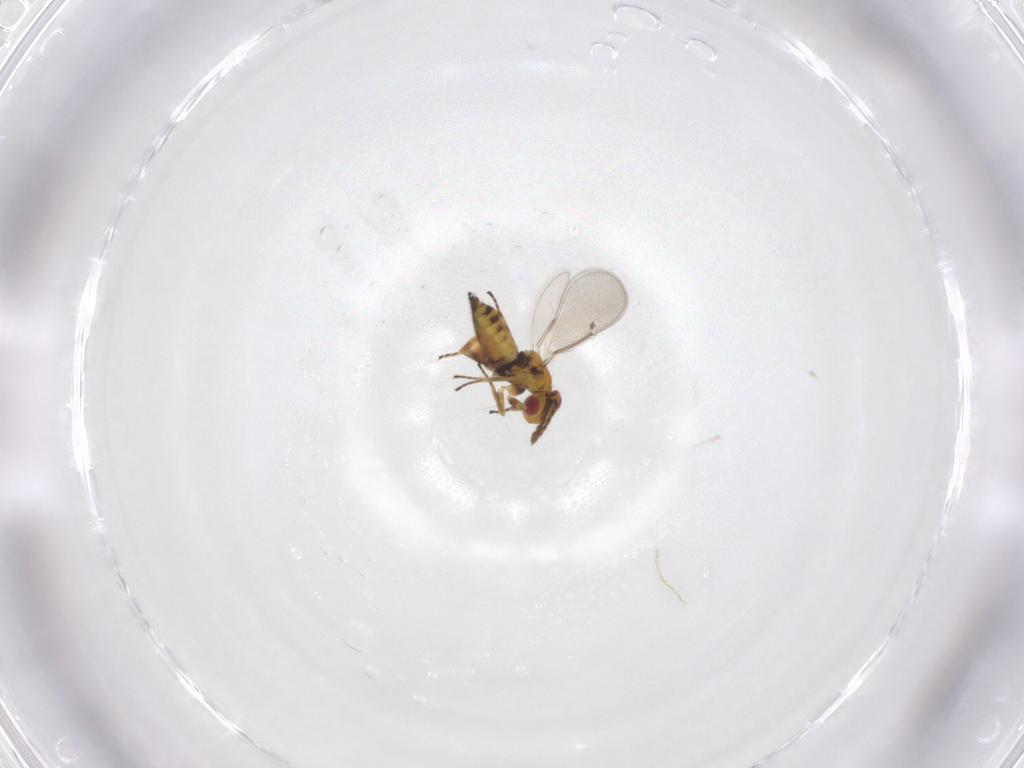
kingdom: Animalia
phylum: Arthropoda
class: Insecta
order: Hymenoptera
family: Eulophidae
